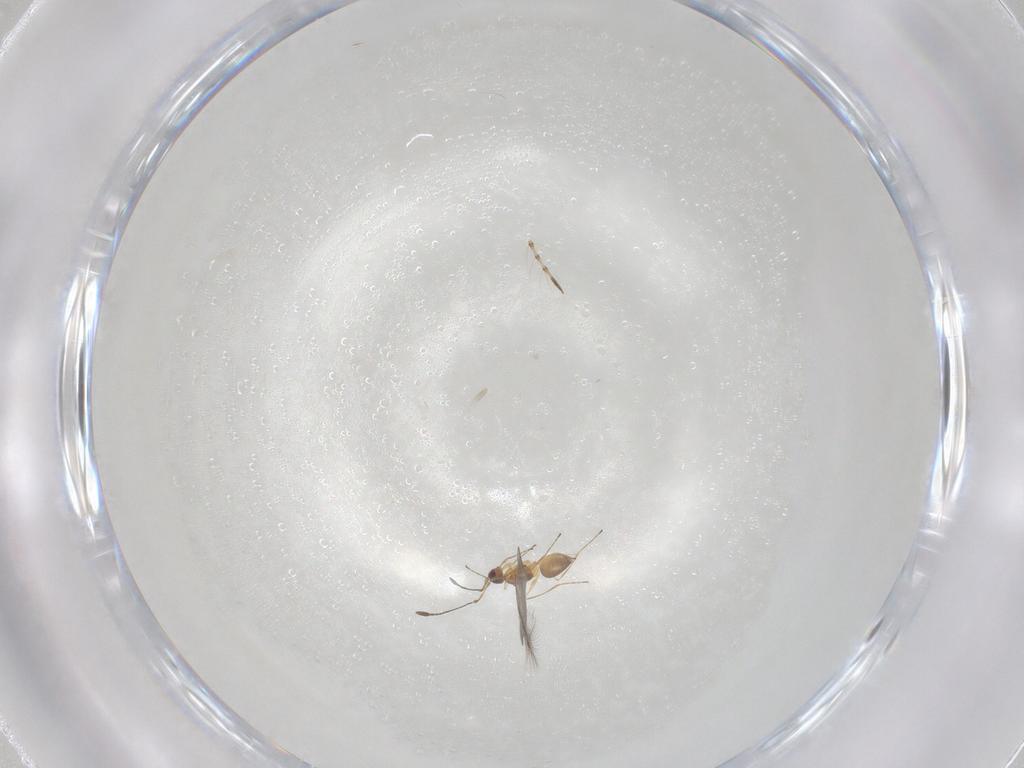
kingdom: Animalia
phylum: Arthropoda
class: Insecta
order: Hymenoptera
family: Mymaridae
